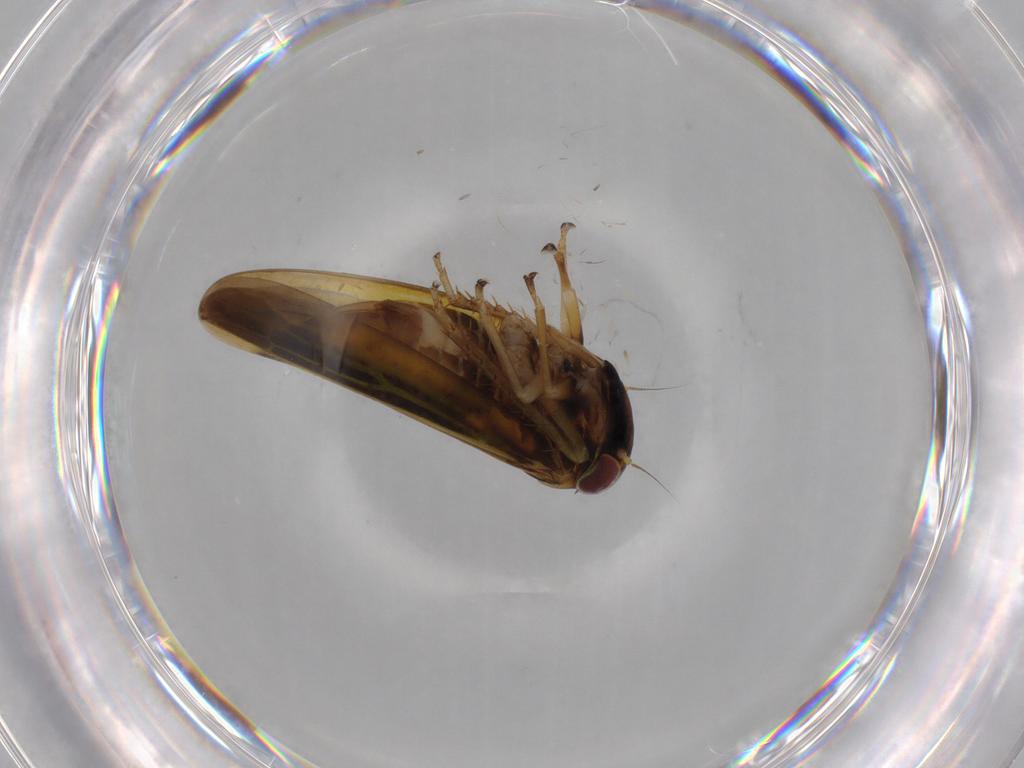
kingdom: Animalia
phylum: Arthropoda
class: Insecta
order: Hemiptera
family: Cicadellidae
